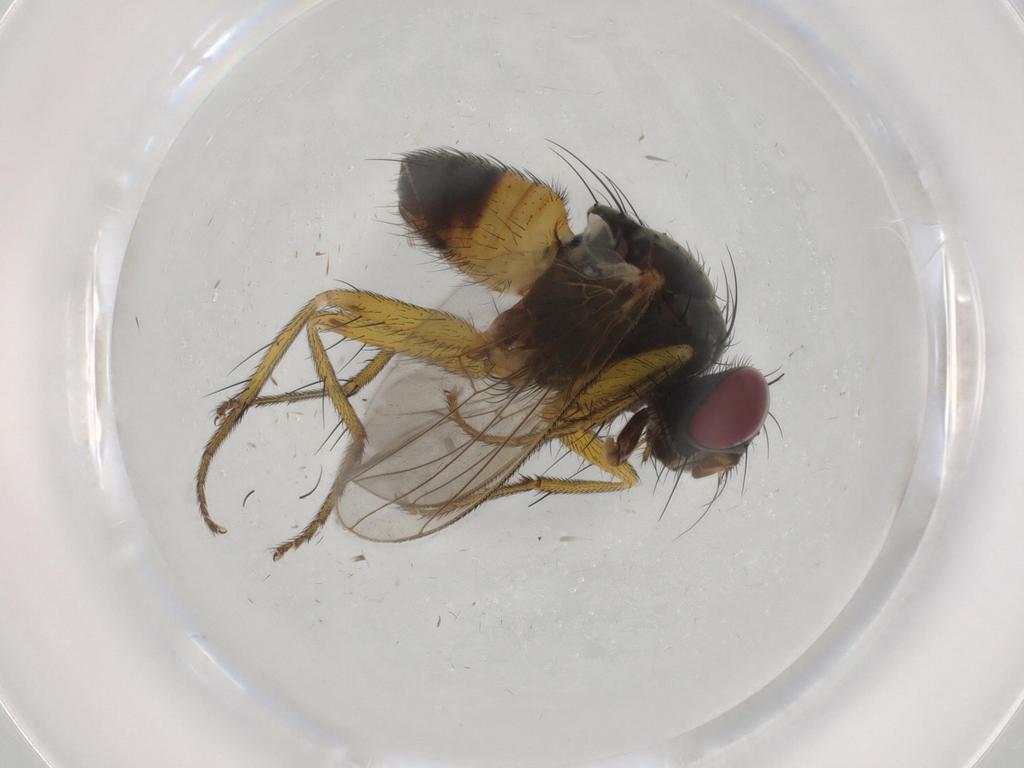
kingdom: Animalia
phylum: Arthropoda
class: Insecta
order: Diptera
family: Muscidae
